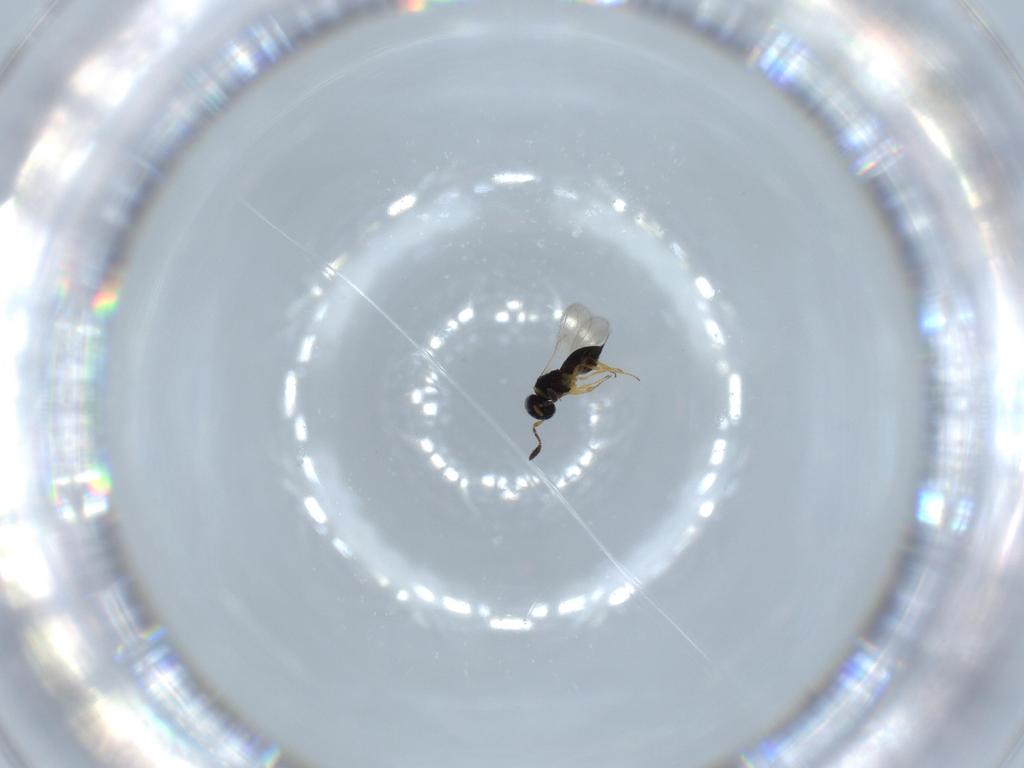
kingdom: Animalia
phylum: Arthropoda
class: Insecta
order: Hymenoptera
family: Scelionidae
